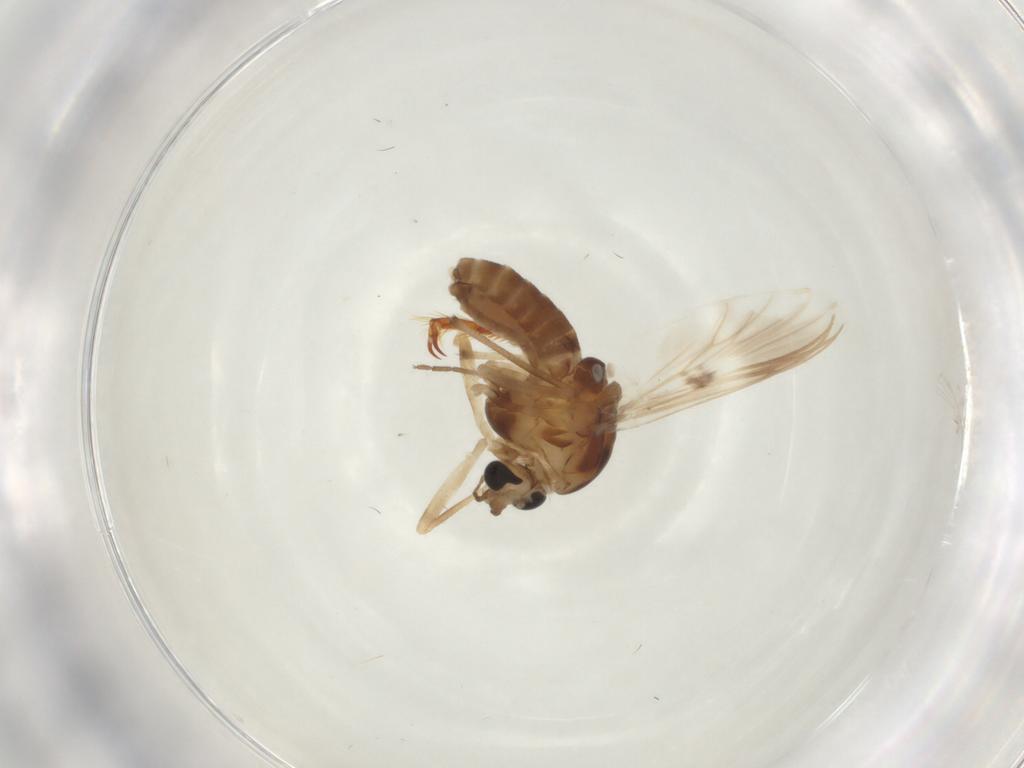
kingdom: Animalia
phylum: Arthropoda
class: Insecta
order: Diptera
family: Chironomidae
